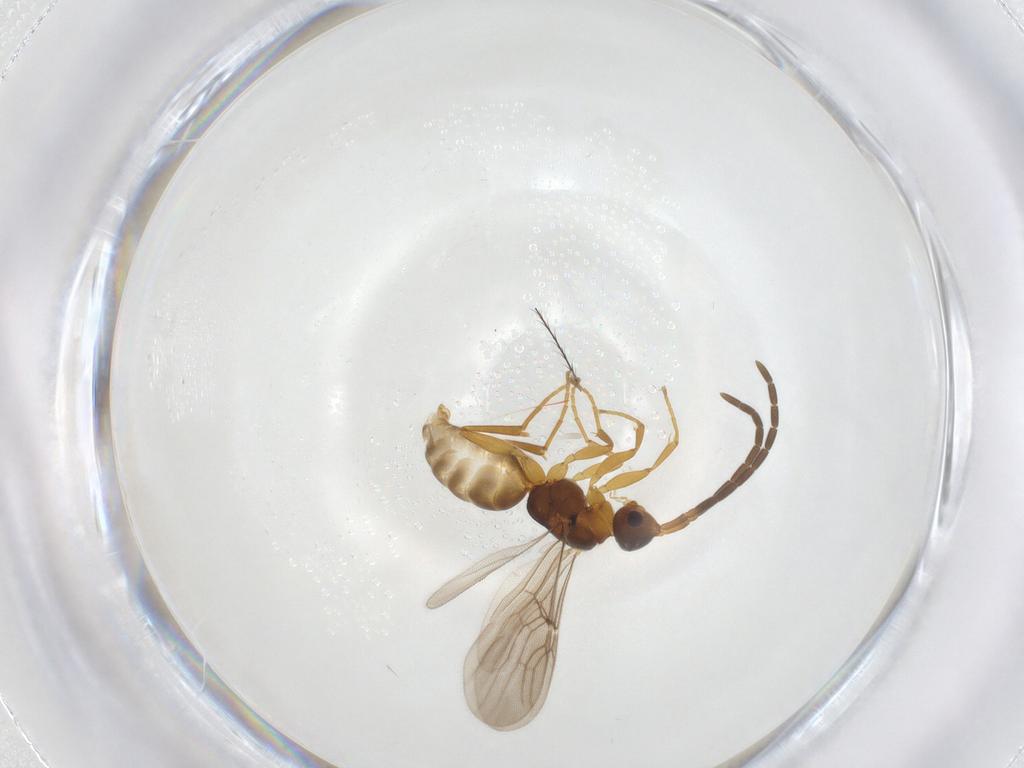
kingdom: Animalia
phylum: Arthropoda
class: Insecta
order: Hymenoptera
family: Embolemidae
